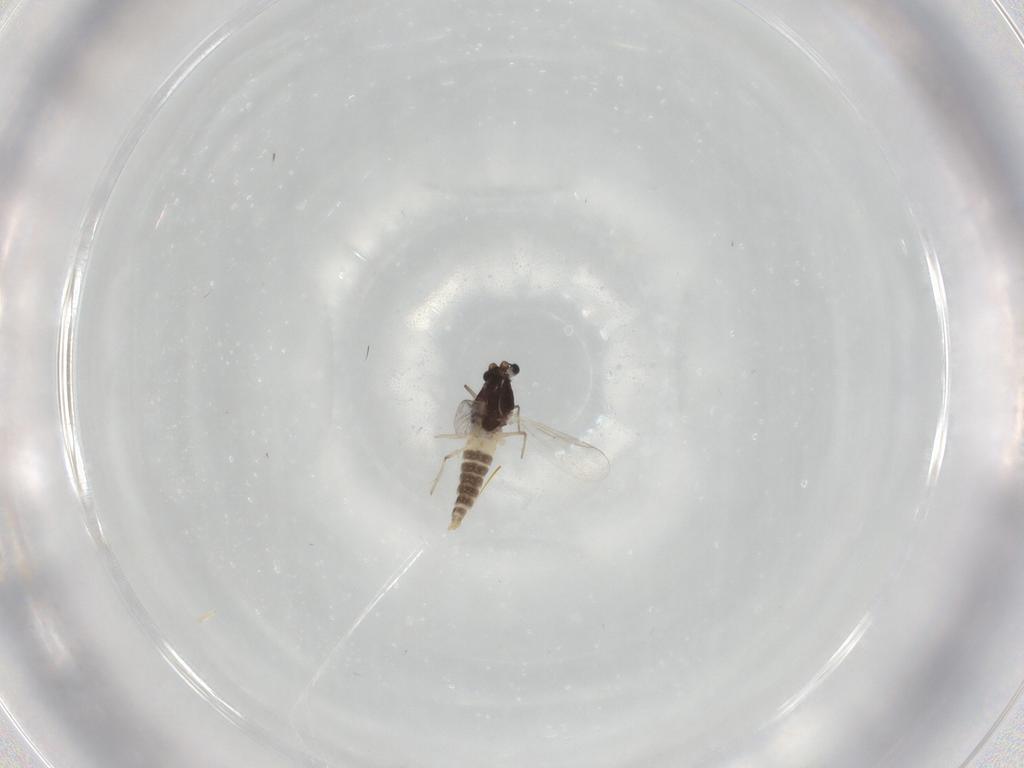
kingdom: Animalia
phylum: Arthropoda
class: Insecta
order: Diptera
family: Chironomidae
